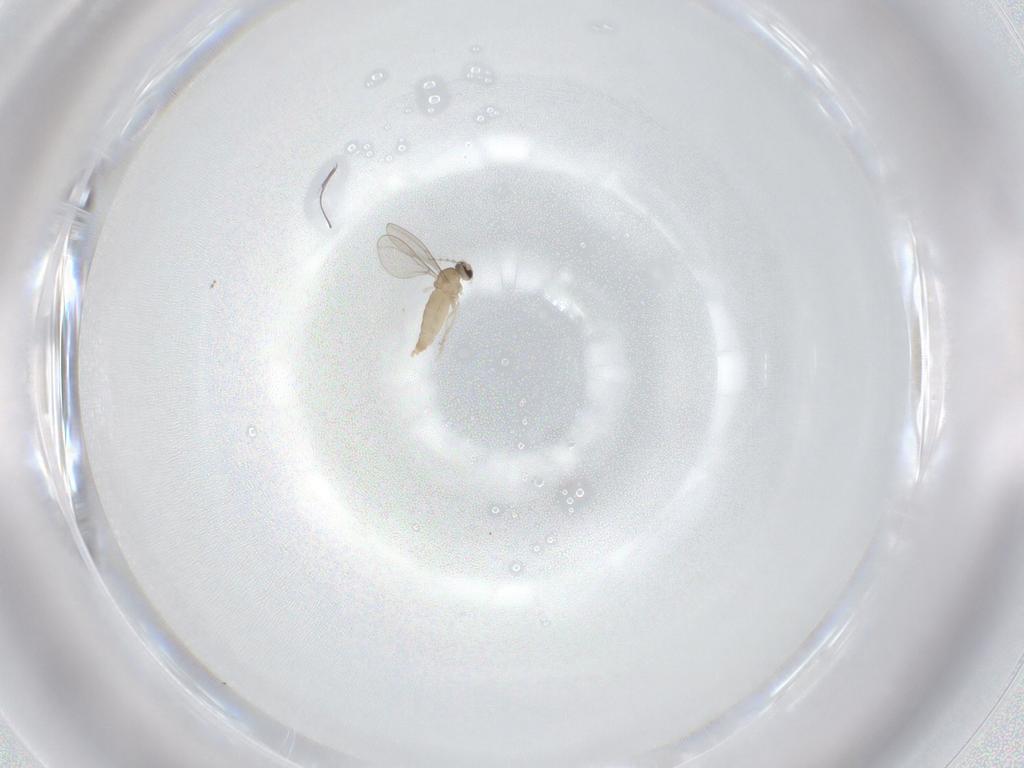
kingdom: Animalia
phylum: Arthropoda
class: Insecta
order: Diptera
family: Cecidomyiidae
